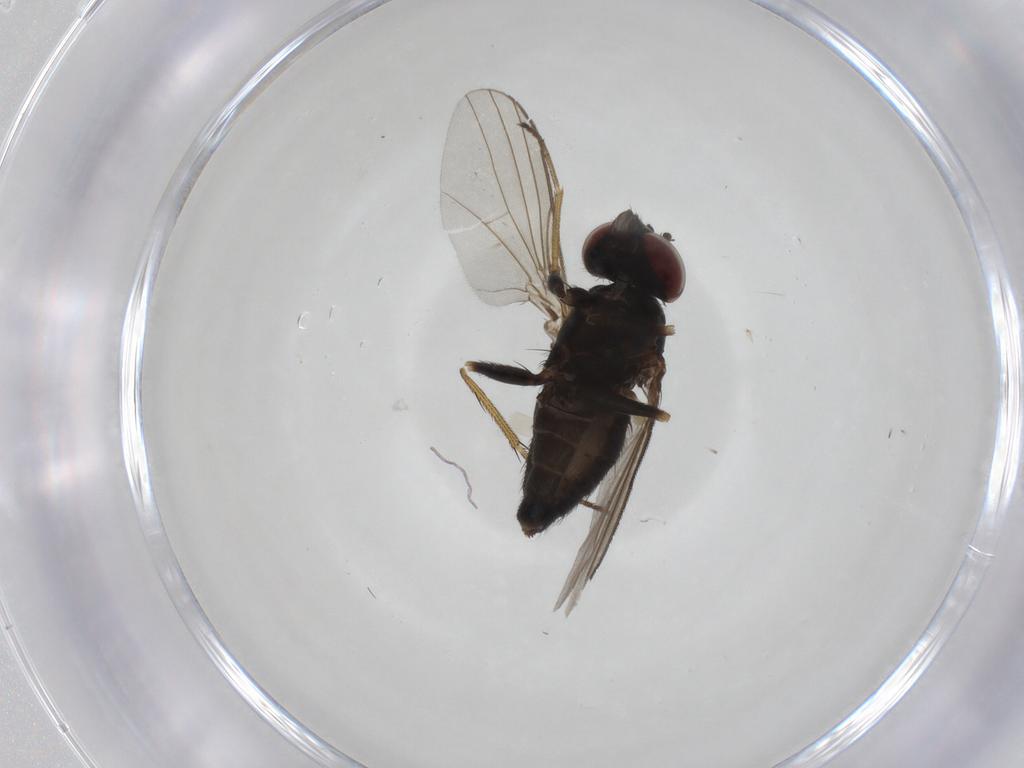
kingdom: Animalia
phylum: Arthropoda
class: Insecta
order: Diptera
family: Dolichopodidae
